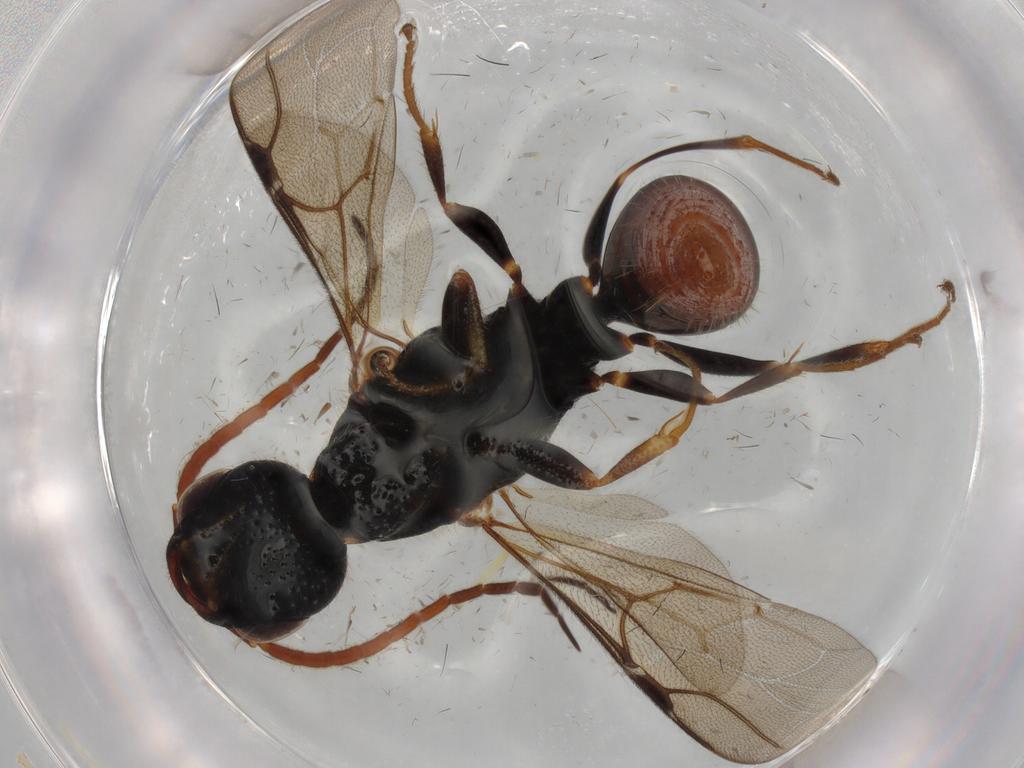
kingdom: Animalia
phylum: Arthropoda
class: Insecta
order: Hymenoptera
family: Bethylidae
